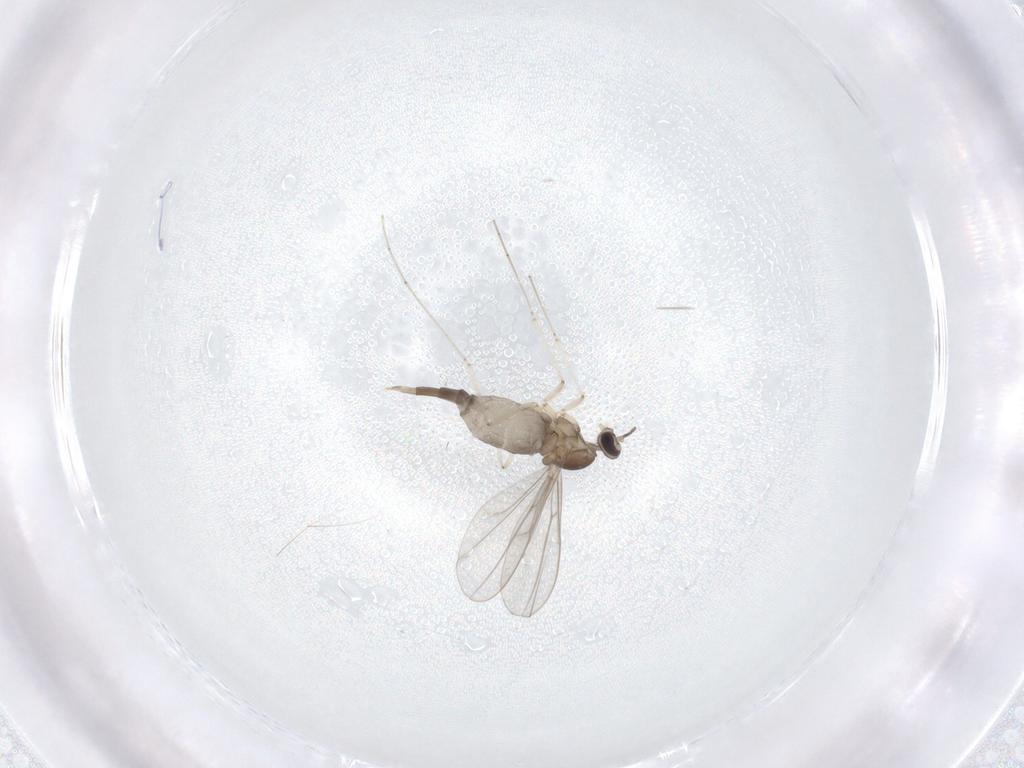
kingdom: Animalia
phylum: Arthropoda
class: Insecta
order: Diptera
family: Cecidomyiidae
